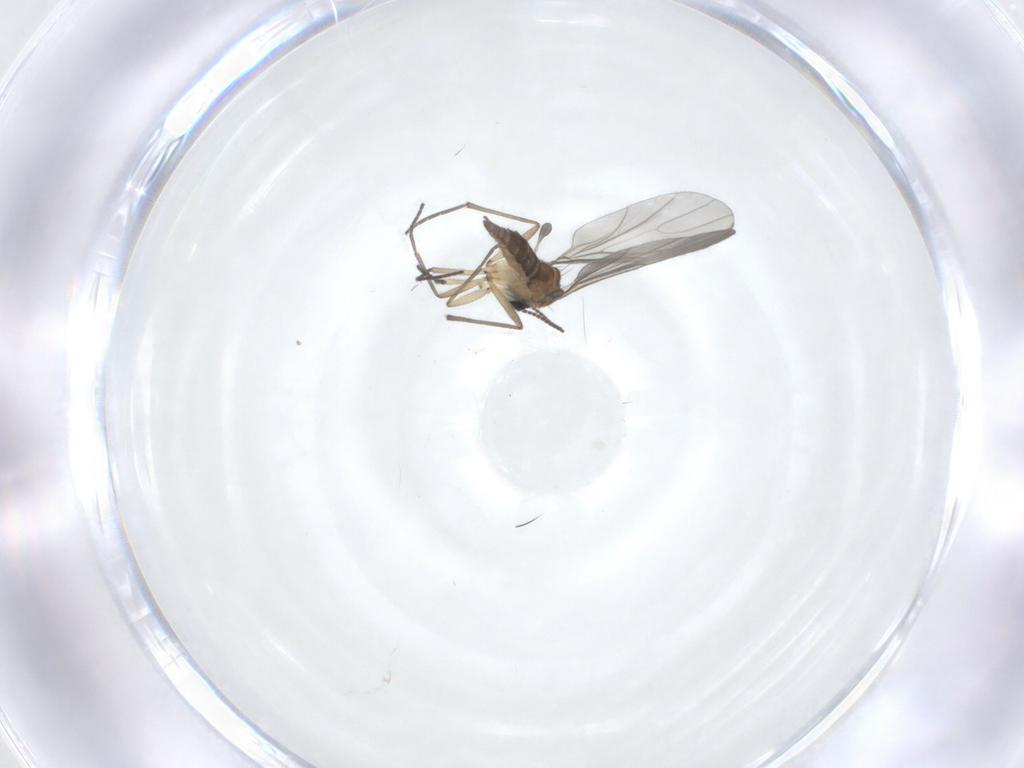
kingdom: Animalia
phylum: Arthropoda
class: Insecta
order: Diptera
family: Sciaridae
